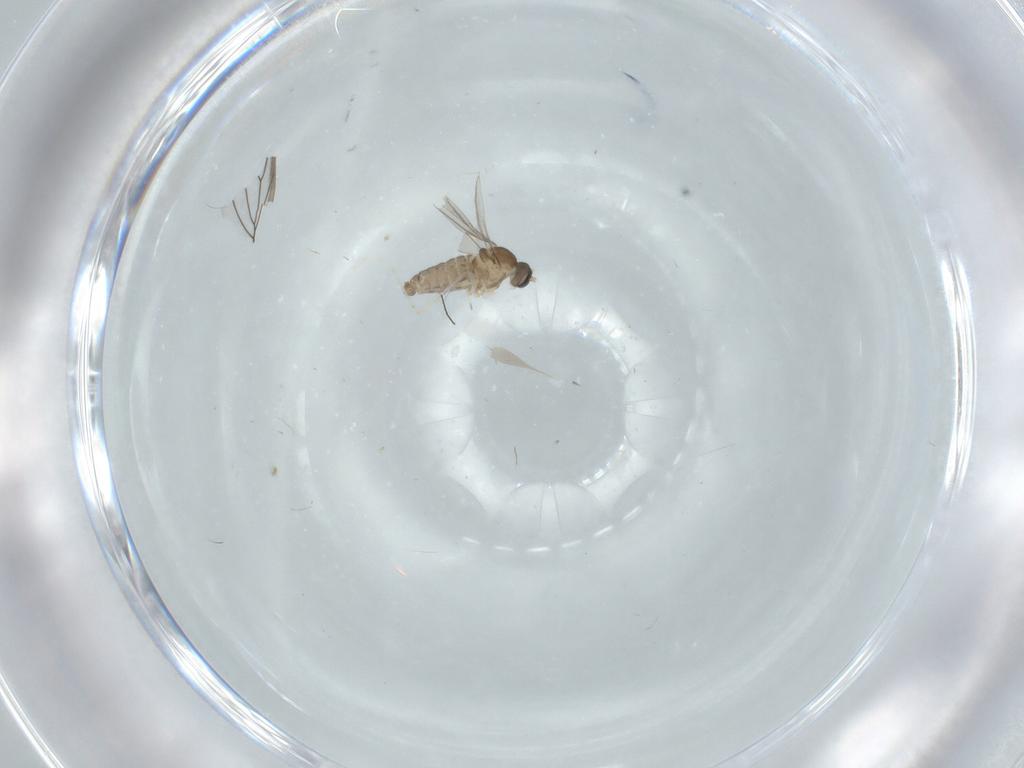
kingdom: Animalia
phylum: Arthropoda
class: Insecta
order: Diptera
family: Cecidomyiidae
